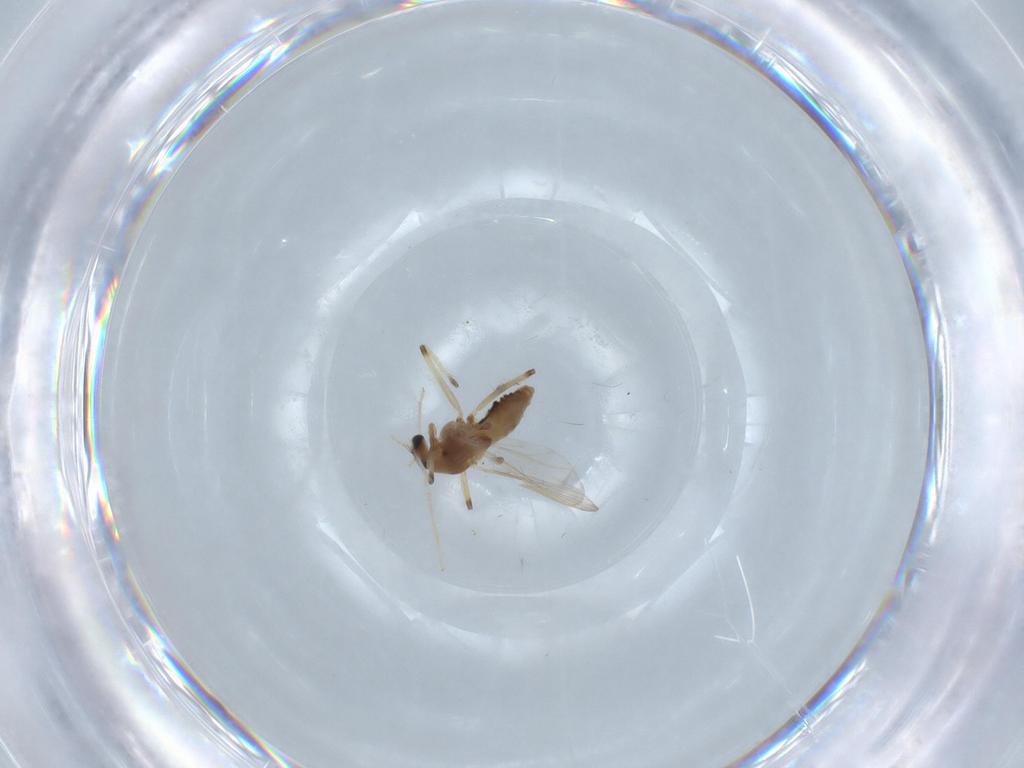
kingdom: Animalia
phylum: Arthropoda
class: Insecta
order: Diptera
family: Chironomidae
